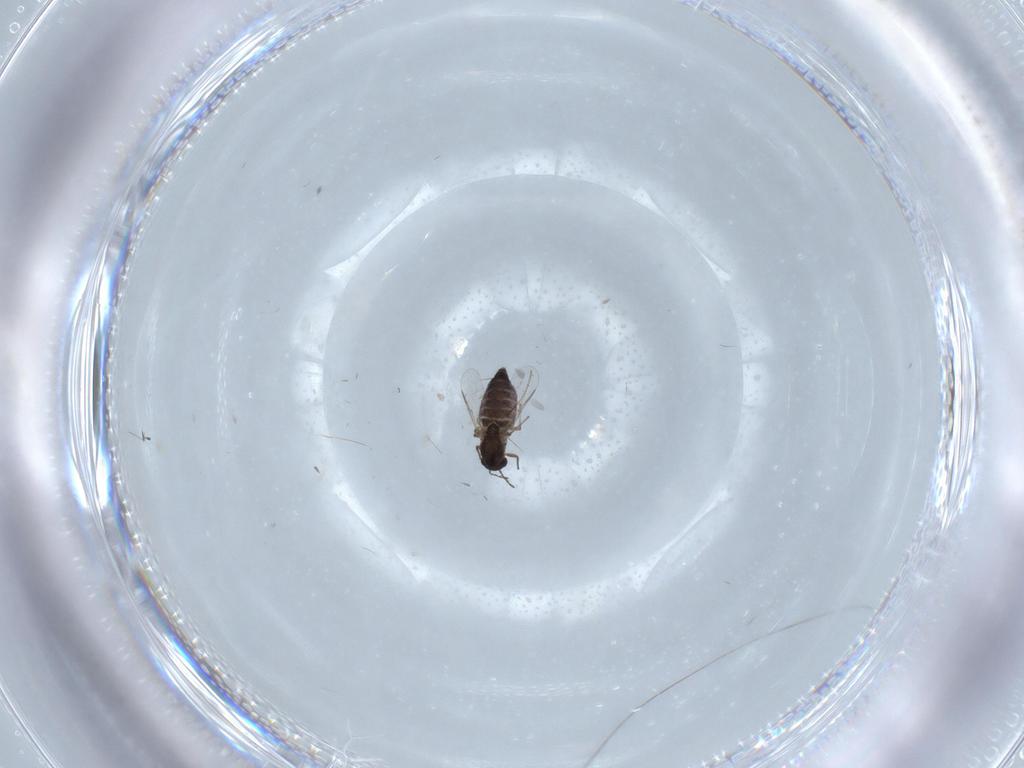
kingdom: Animalia
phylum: Arthropoda
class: Insecta
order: Diptera
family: Chironomidae
